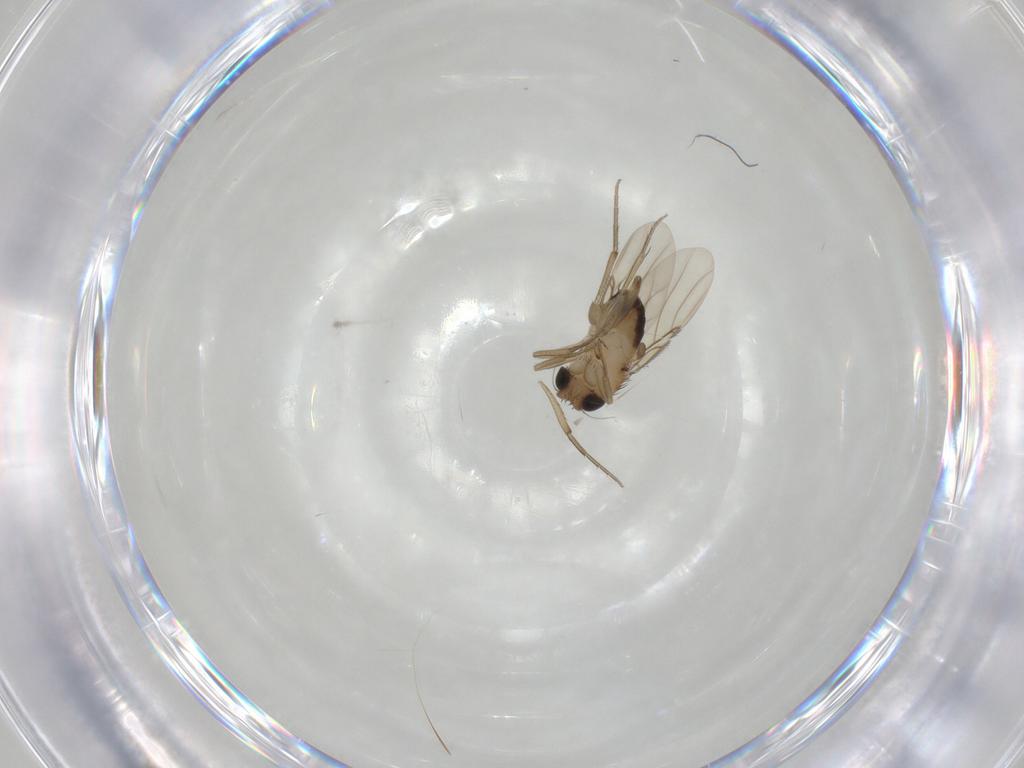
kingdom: Animalia
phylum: Arthropoda
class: Insecta
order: Diptera
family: Phoridae
